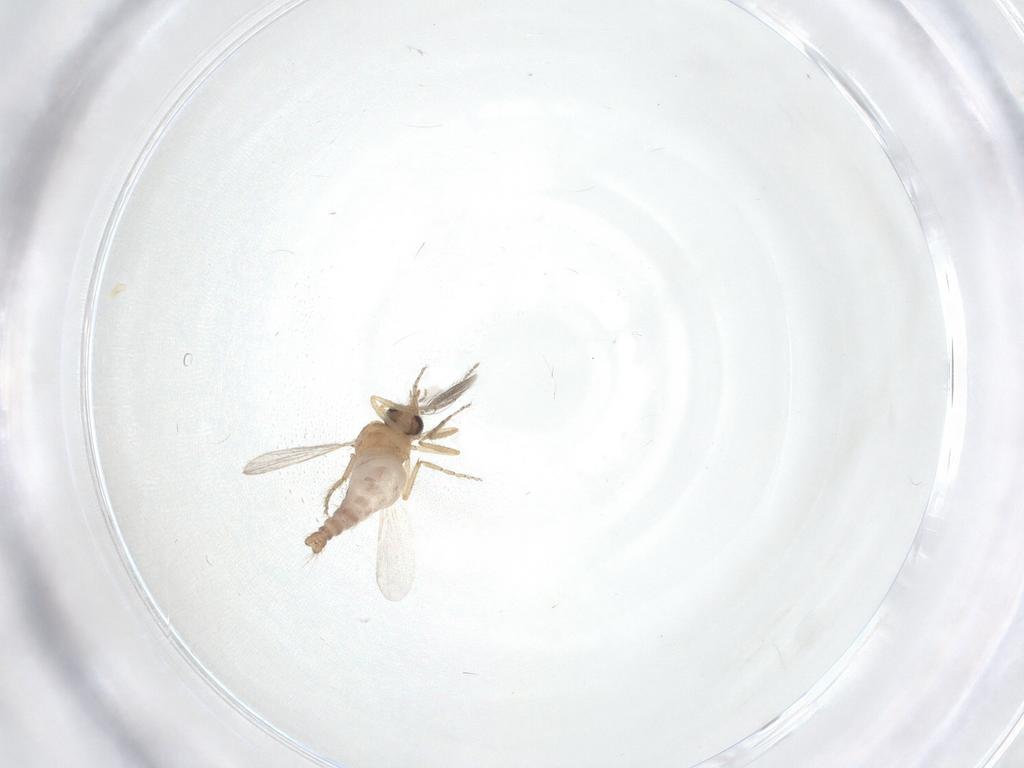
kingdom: Animalia
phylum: Arthropoda
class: Insecta
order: Diptera
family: Ceratopogonidae
